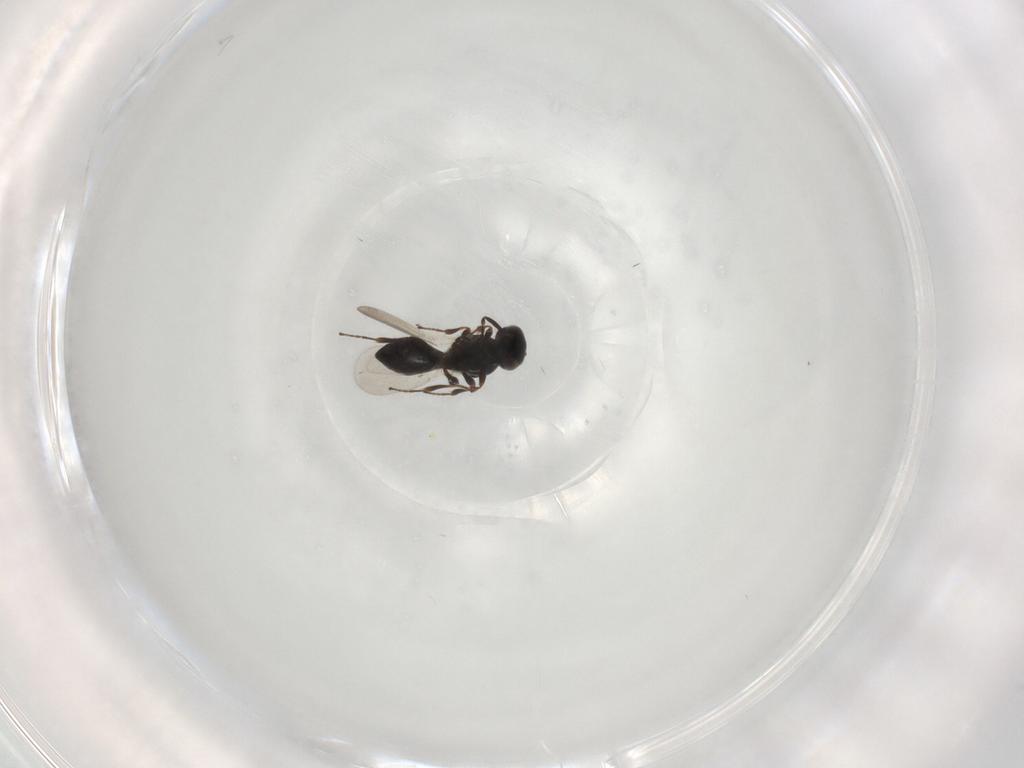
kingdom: Animalia
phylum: Arthropoda
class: Insecta
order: Hymenoptera
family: Platygastridae
